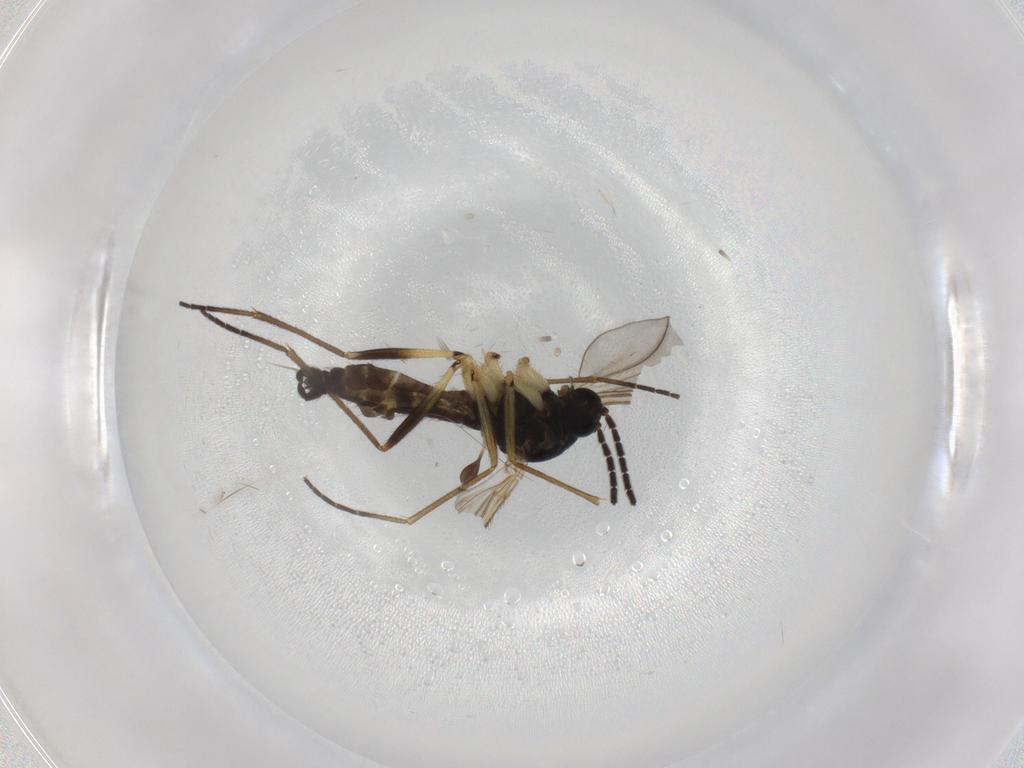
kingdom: Animalia
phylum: Arthropoda
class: Insecta
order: Diptera
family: Sciaridae
